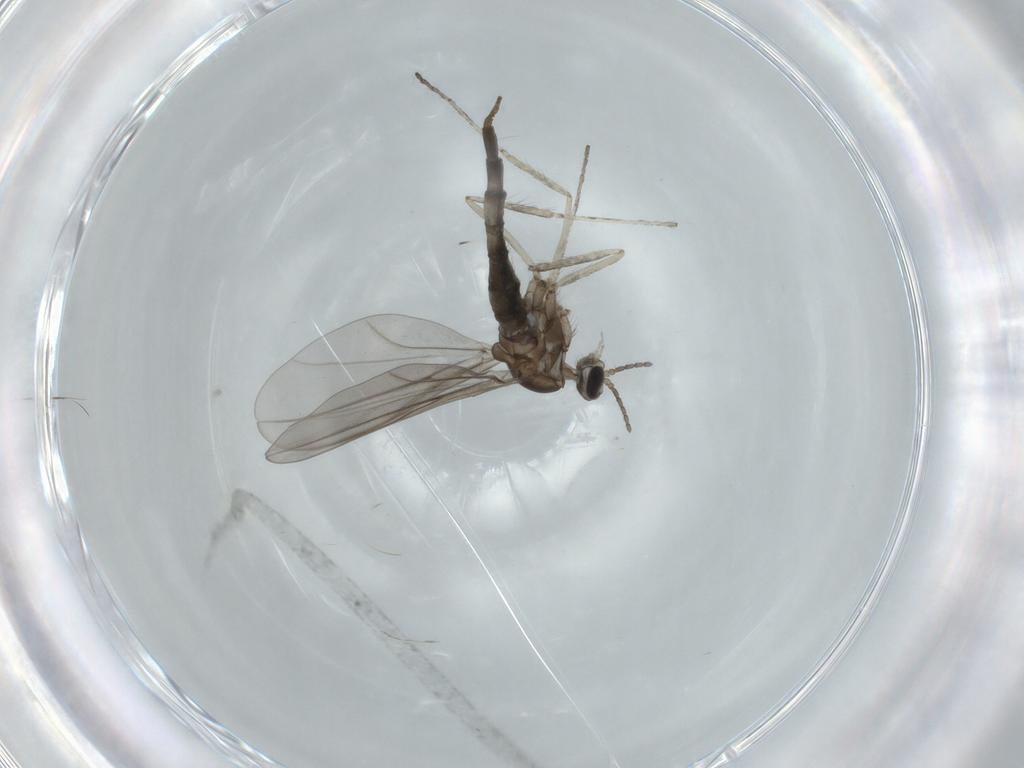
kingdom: Animalia
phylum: Arthropoda
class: Insecta
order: Diptera
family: Cecidomyiidae
